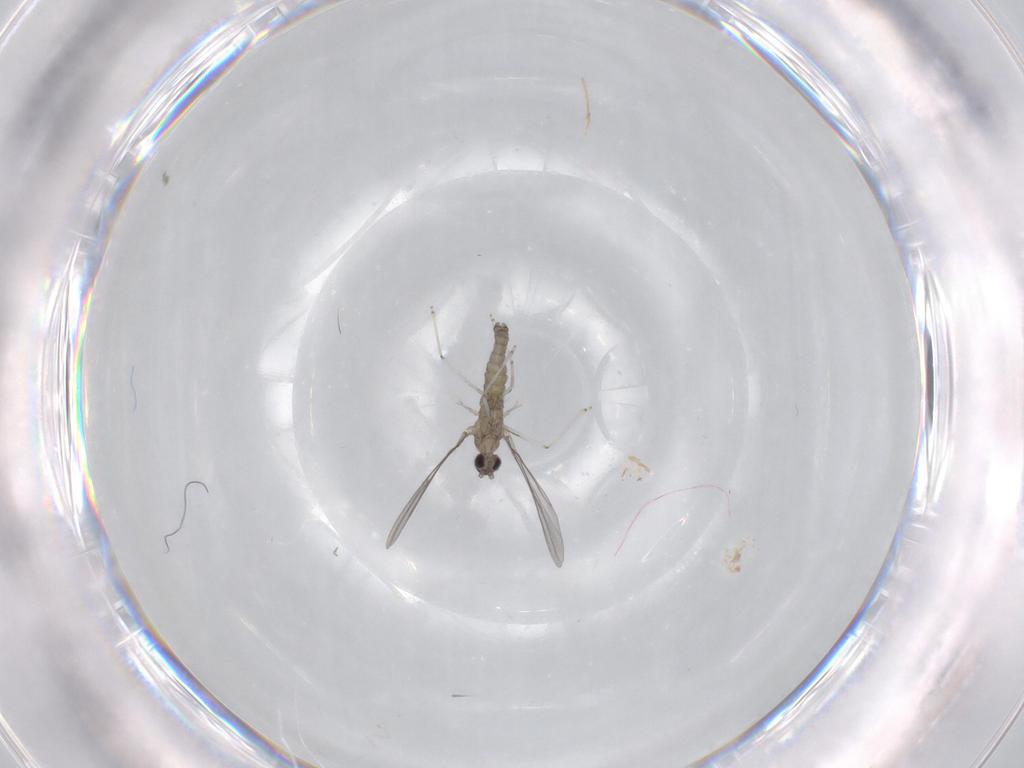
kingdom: Animalia
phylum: Arthropoda
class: Insecta
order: Diptera
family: Cecidomyiidae
